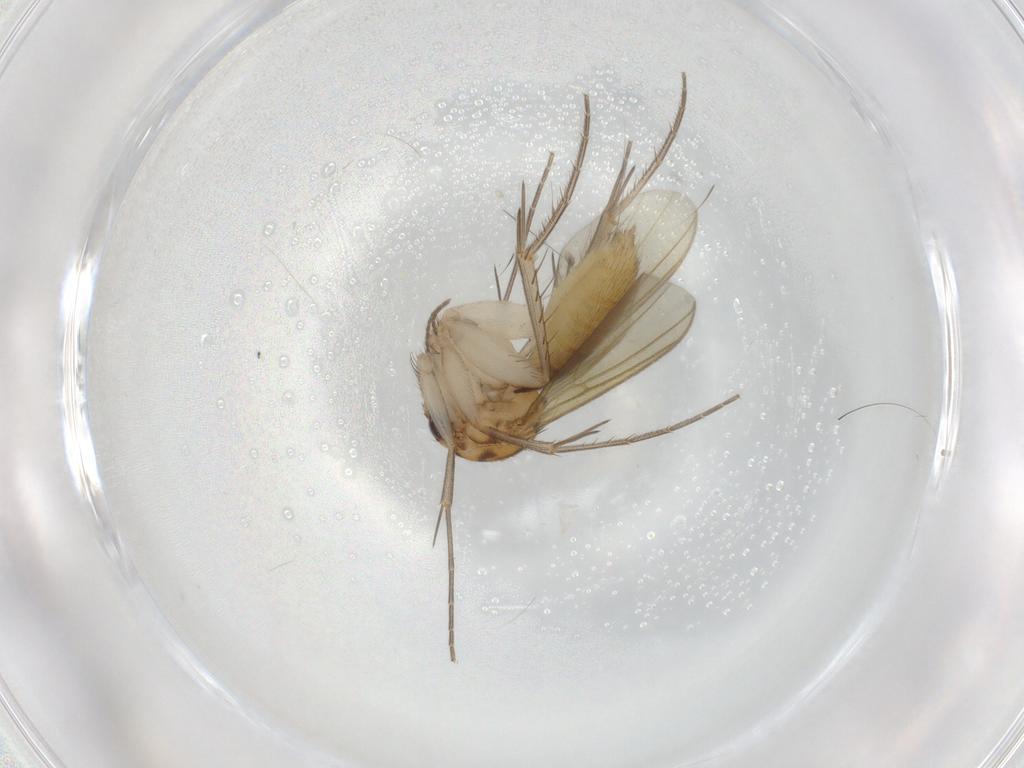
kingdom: Animalia
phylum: Arthropoda
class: Insecta
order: Diptera
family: Mycetophilidae
